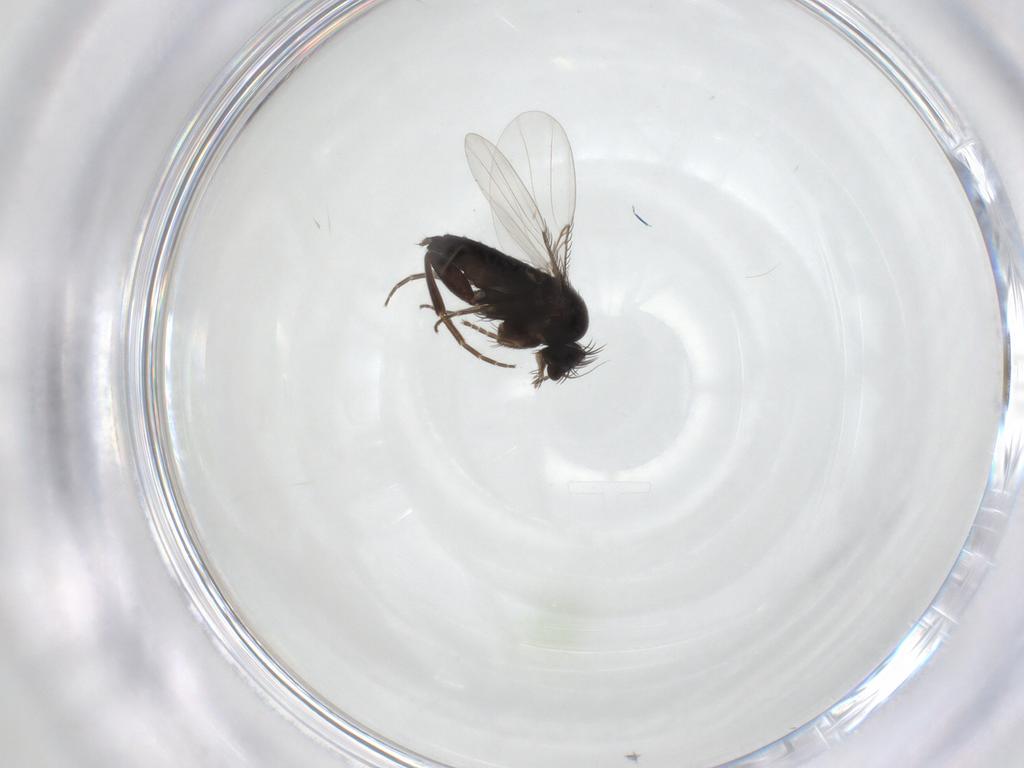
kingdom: Animalia
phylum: Arthropoda
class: Insecta
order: Diptera
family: Phoridae
